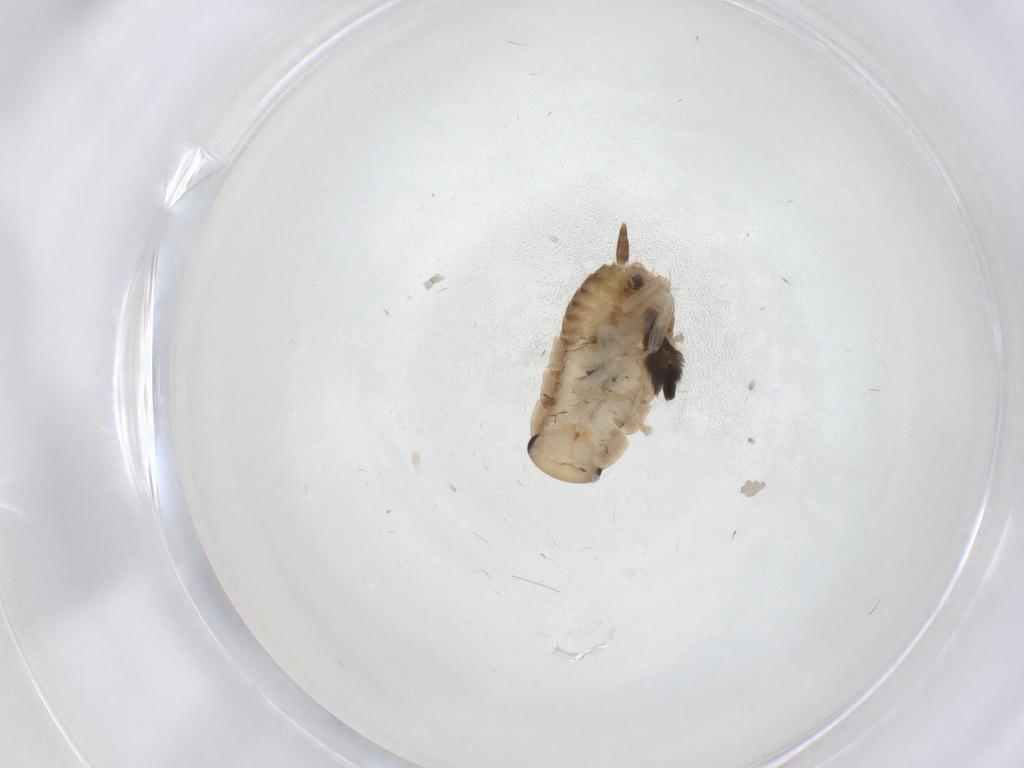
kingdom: Animalia
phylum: Arthropoda
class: Insecta
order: Blattodea
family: Ectobiidae
